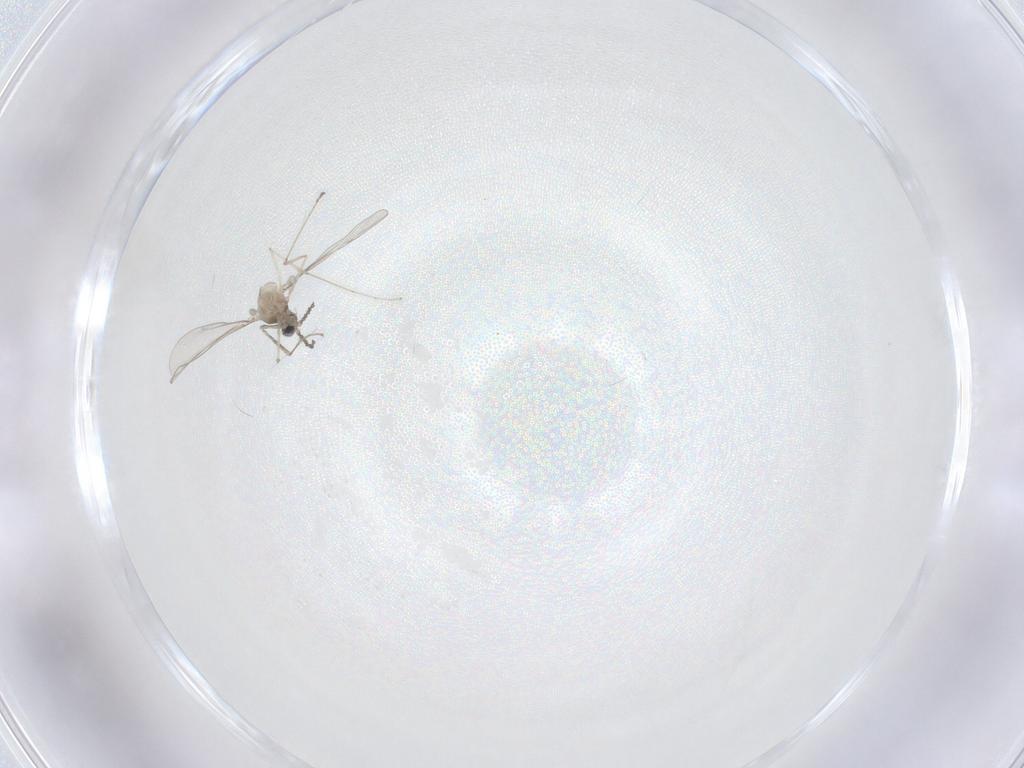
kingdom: Animalia
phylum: Arthropoda
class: Insecta
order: Diptera
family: Cecidomyiidae
